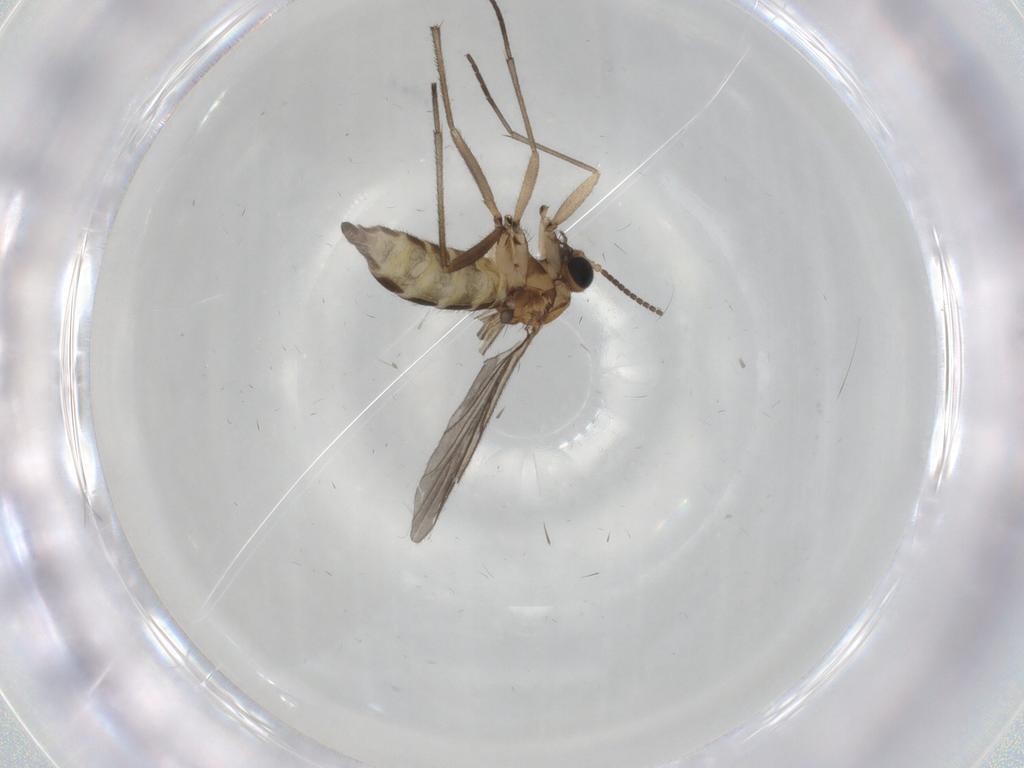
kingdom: Animalia
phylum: Arthropoda
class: Insecta
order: Diptera
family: Sciaridae
